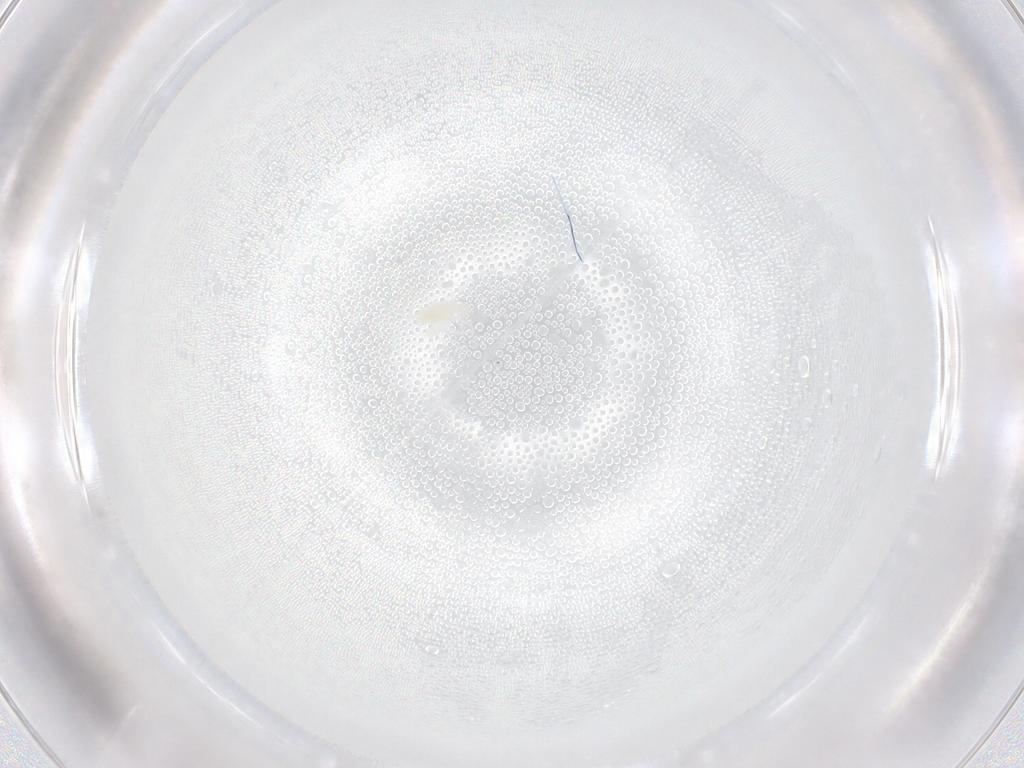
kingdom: Animalia
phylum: Arthropoda
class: Arachnida
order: Trombidiformes
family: Eupodidae
